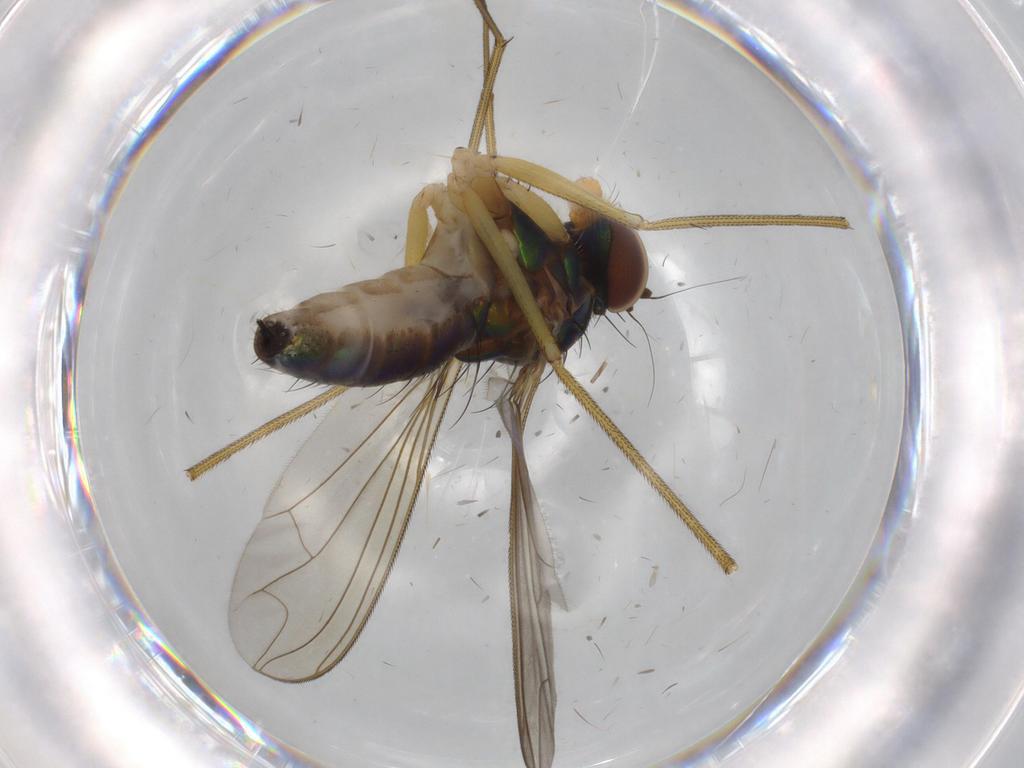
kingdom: Animalia
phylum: Arthropoda
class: Insecta
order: Diptera
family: Dolichopodidae
